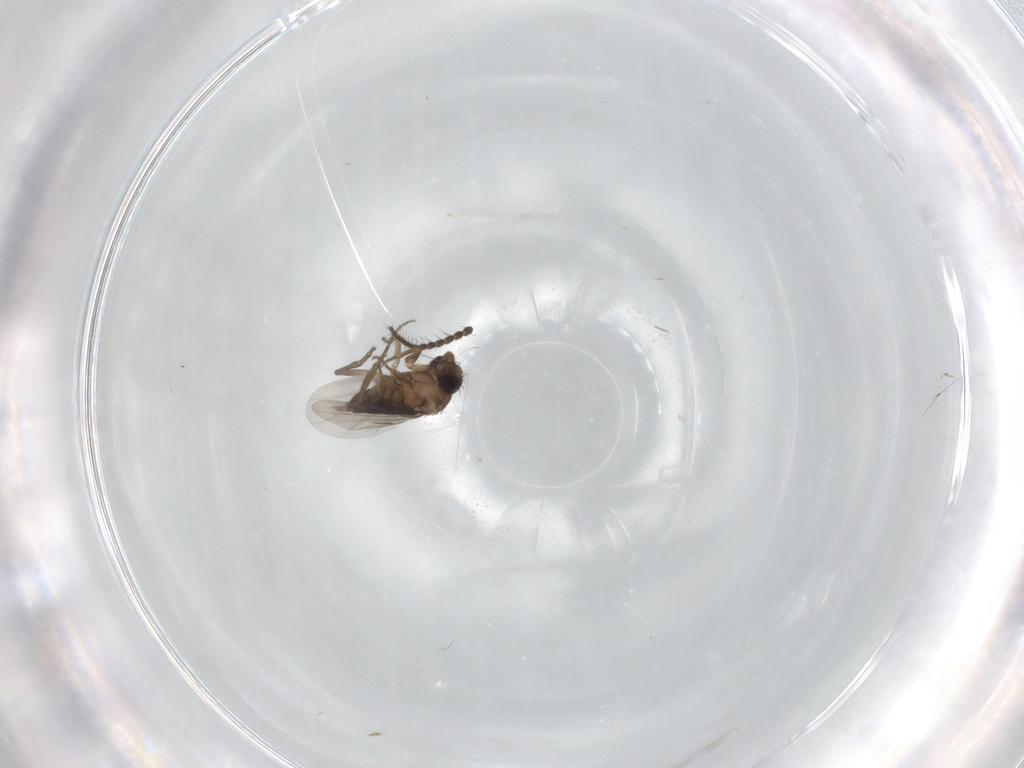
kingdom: Animalia
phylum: Arthropoda
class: Insecta
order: Diptera
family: Phoridae
